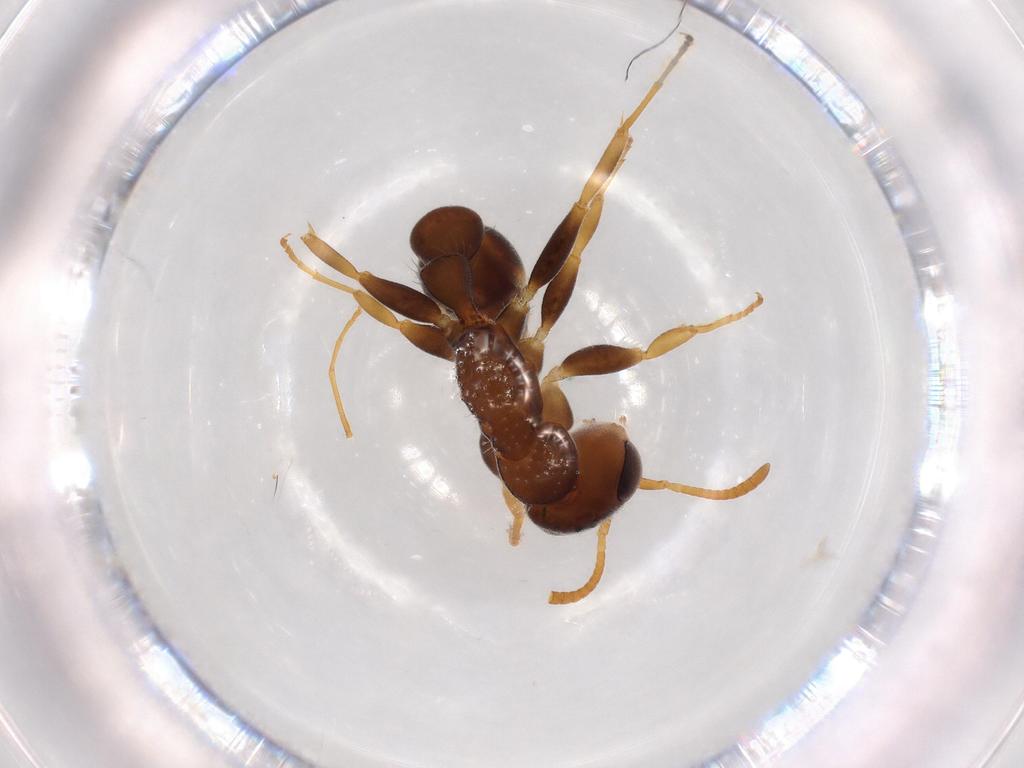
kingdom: Animalia
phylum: Arthropoda
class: Insecta
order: Hymenoptera
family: Formicidae
